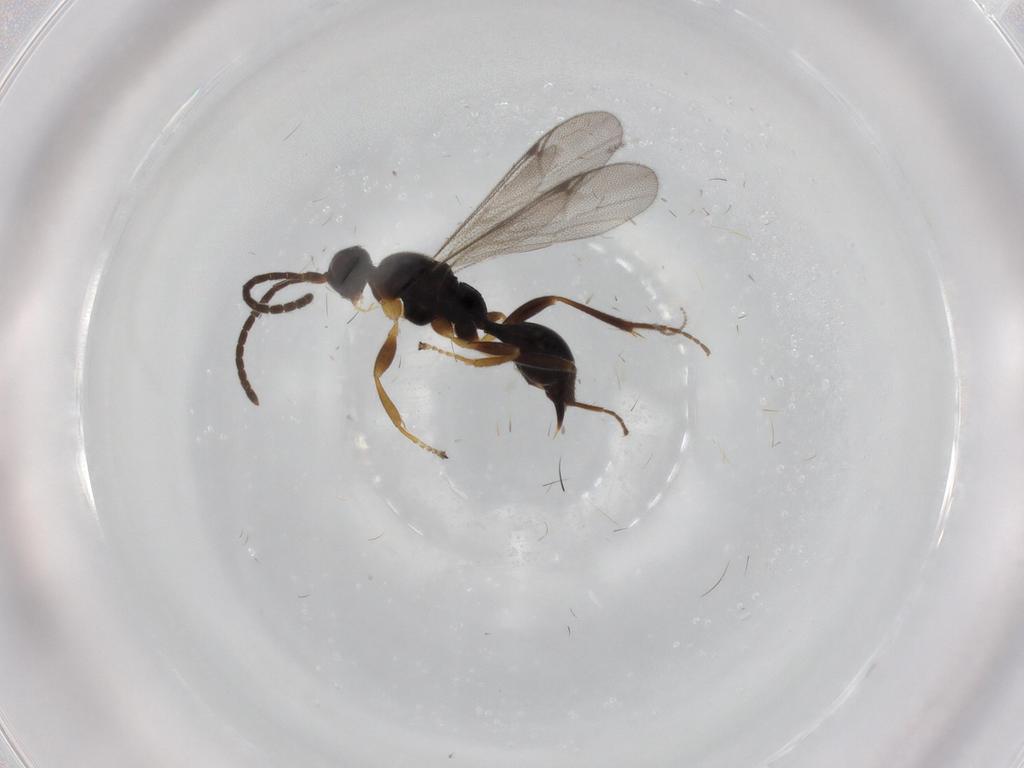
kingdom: Animalia
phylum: Arthropoda
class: Insecta
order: Hymenoptera
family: Proctotrupidae
